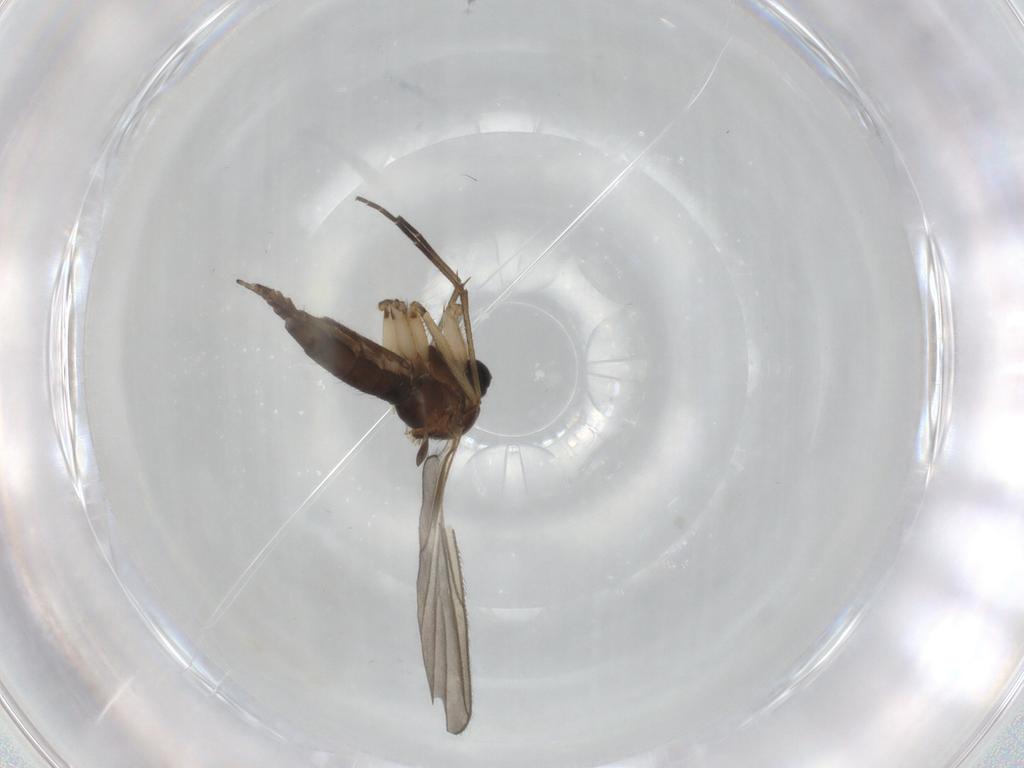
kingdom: Animalia
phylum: Arthropoda
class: Insecta
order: Diptera
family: Sciaridae
